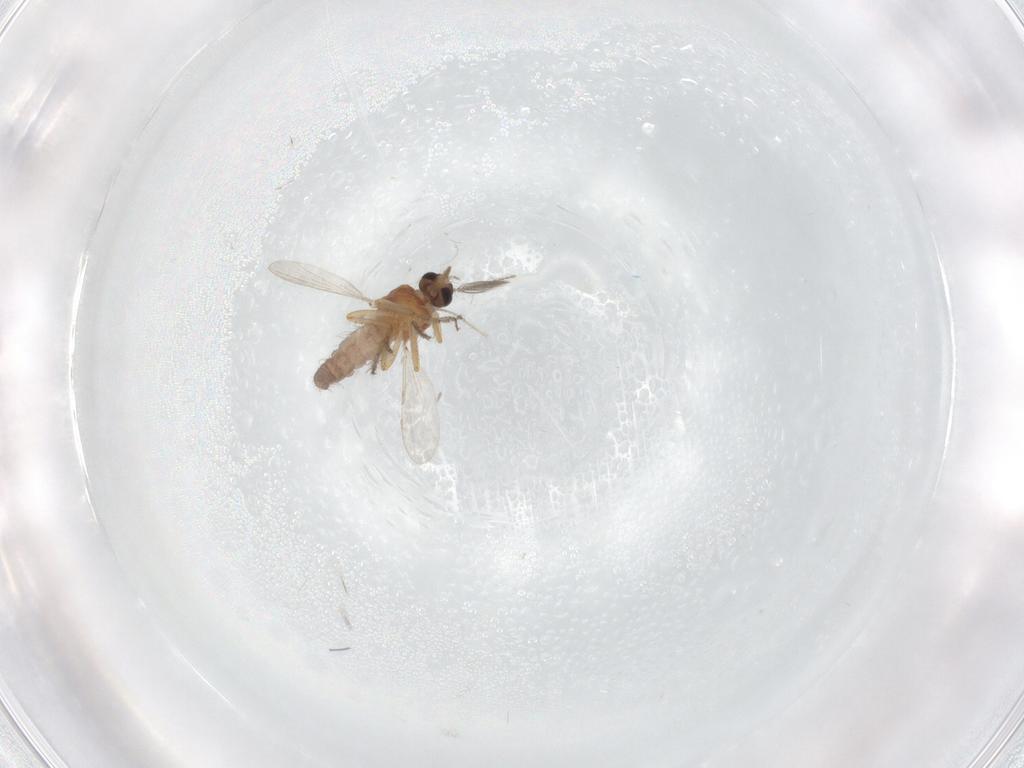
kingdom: Animalia
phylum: Arthropoda
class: Insecta
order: Diptera
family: Ceratopogonidae
